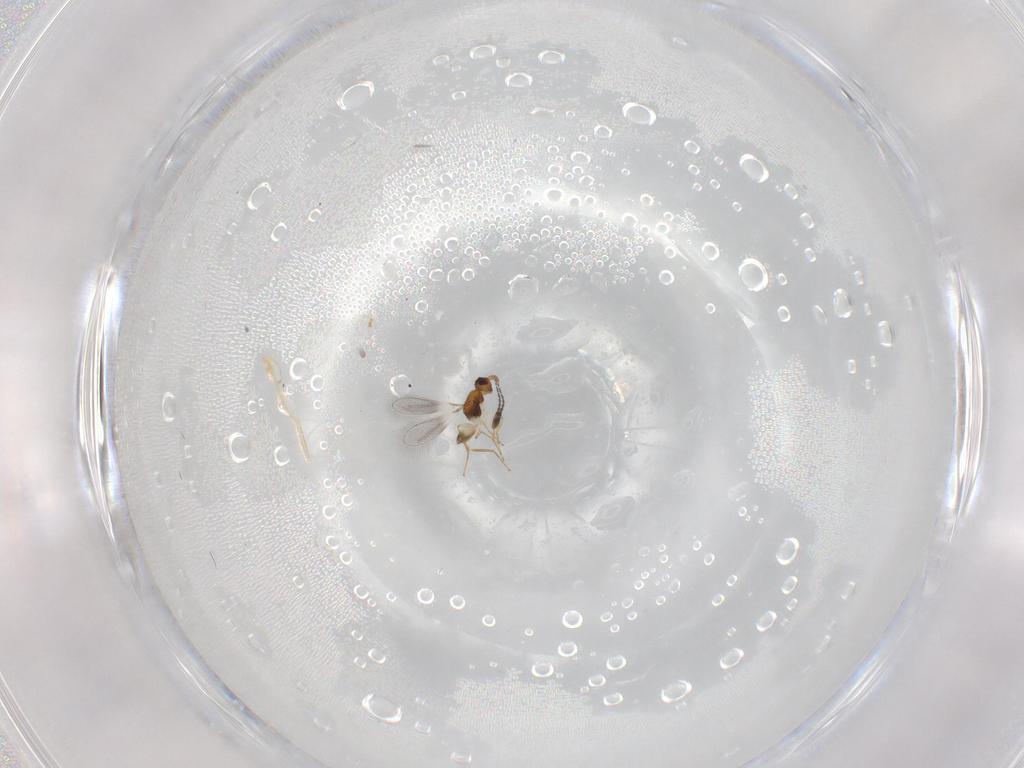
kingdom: Animalia
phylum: Arthropoda
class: Insecta
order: Hymenoptera
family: Mymaridae
